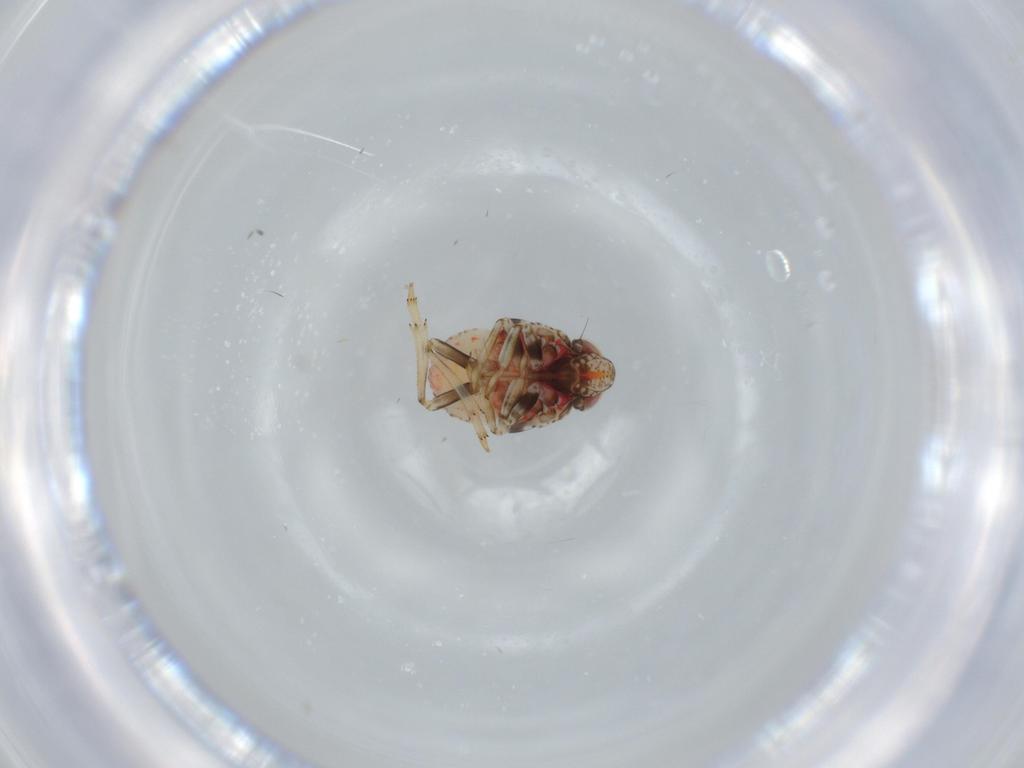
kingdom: Animalia
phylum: Arthropoda
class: Insecta
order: Hemiptera
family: Issidae
